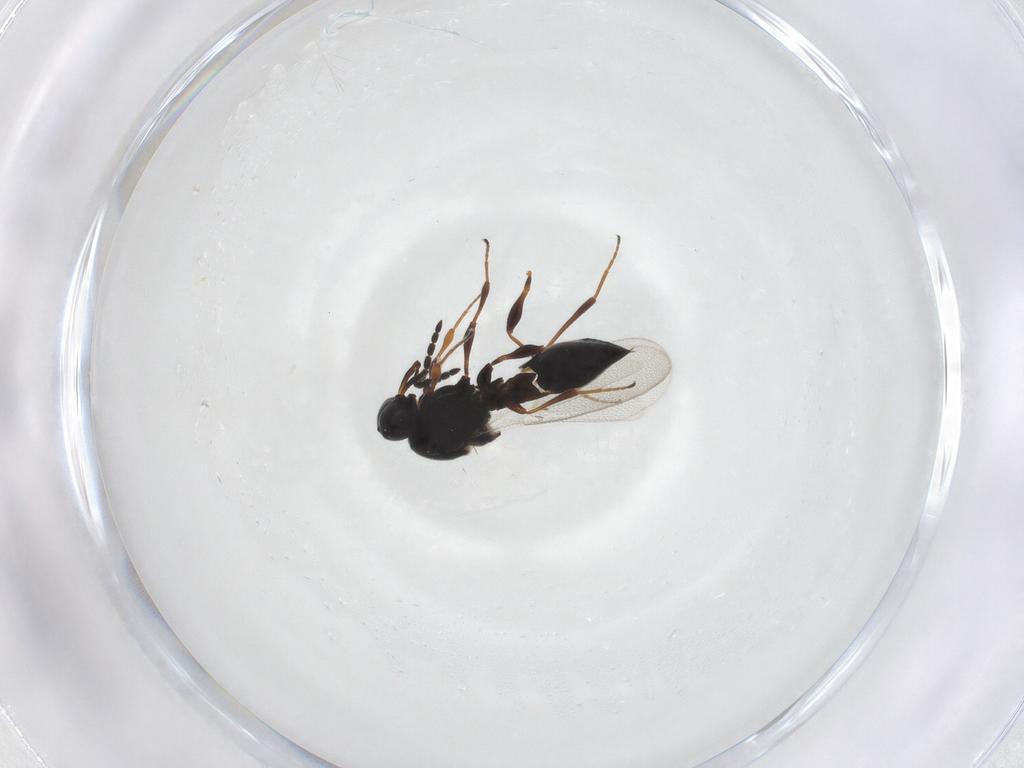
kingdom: Animalia
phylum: Arthropoda
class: Insecta
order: Hymenoptera
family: Platygastridae
